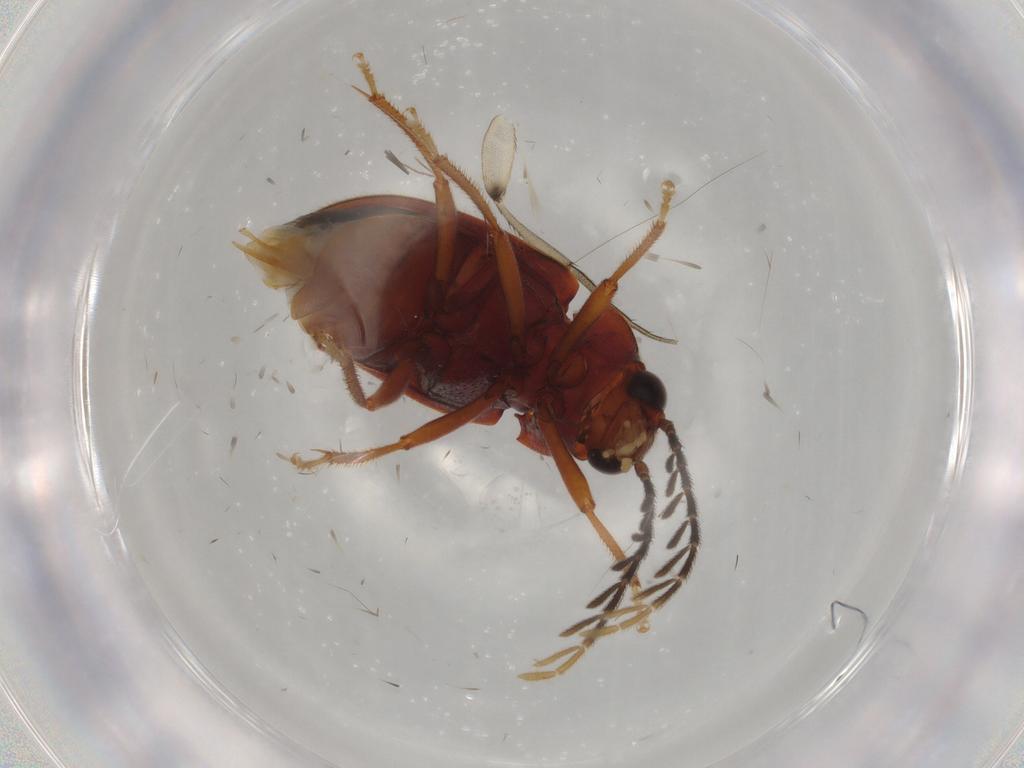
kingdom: Animalia
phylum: Arthropoda
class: Insecta
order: Coleoptera
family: Ptilodactylidae
